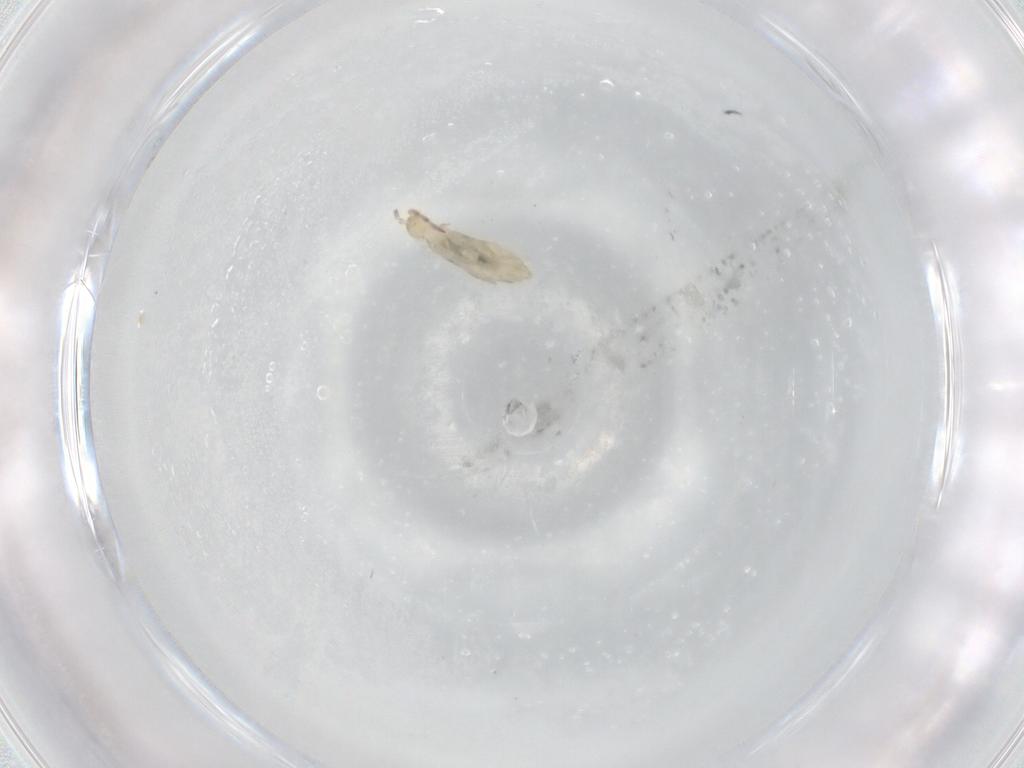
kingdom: Animalia
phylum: Arthropoda
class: Collembola
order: Entomobryomorpha
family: Entomobryidae
